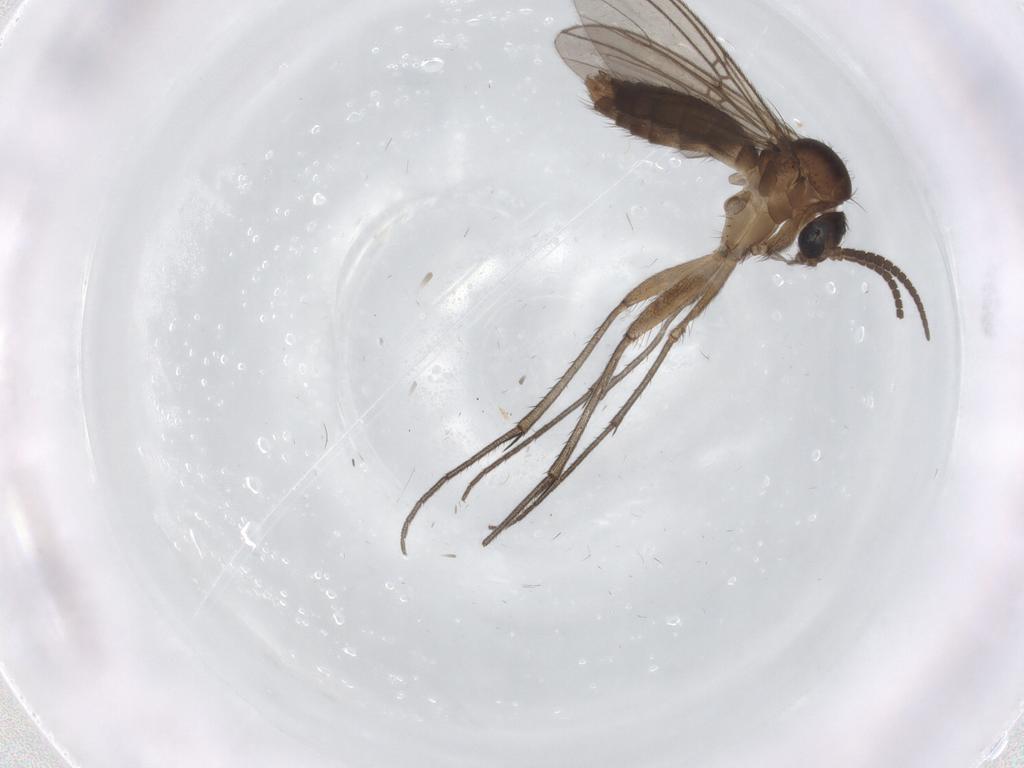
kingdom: Animalia
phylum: Arthropoda
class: Insecta
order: Diptera
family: Mycetophilidae
